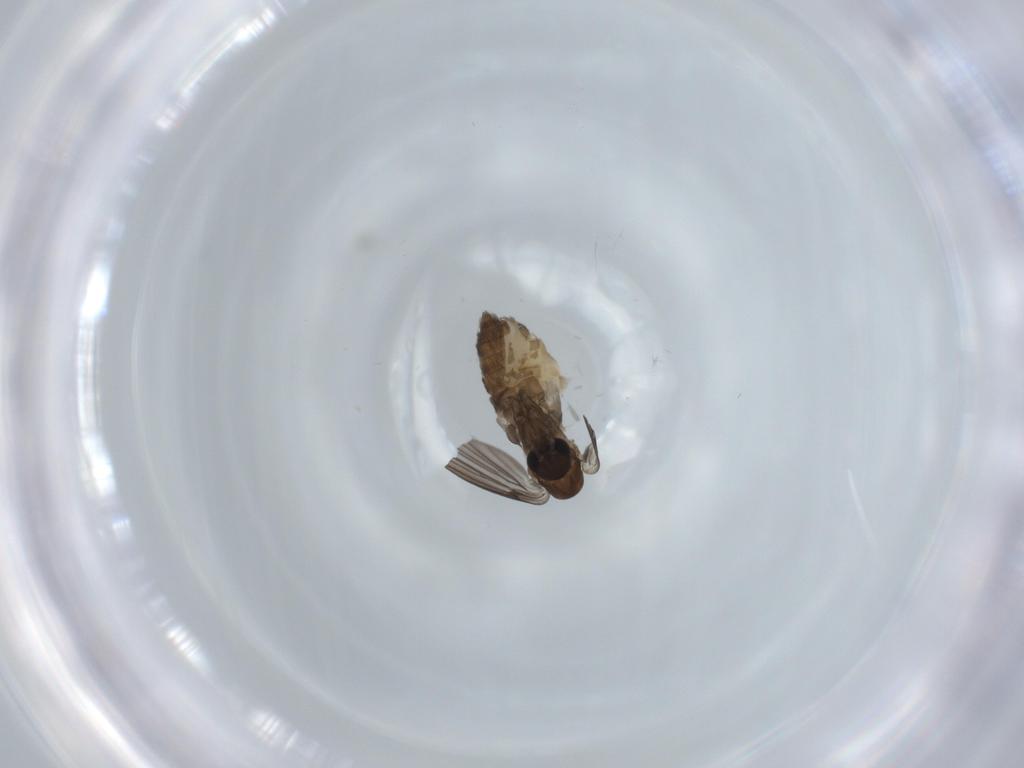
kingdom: Animalia
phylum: Arthropoda
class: Insecta
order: Diptera
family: Psychodidae
